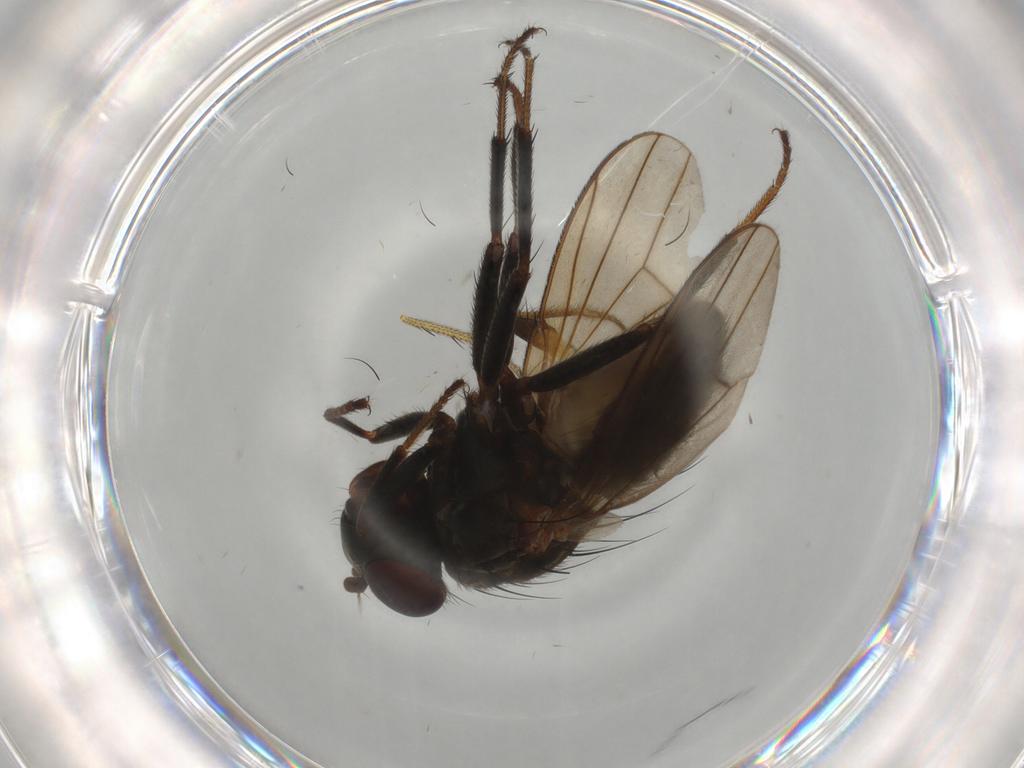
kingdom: Animalia
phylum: Arthropoda
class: Insecta
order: Diptera
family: Ephydridae
